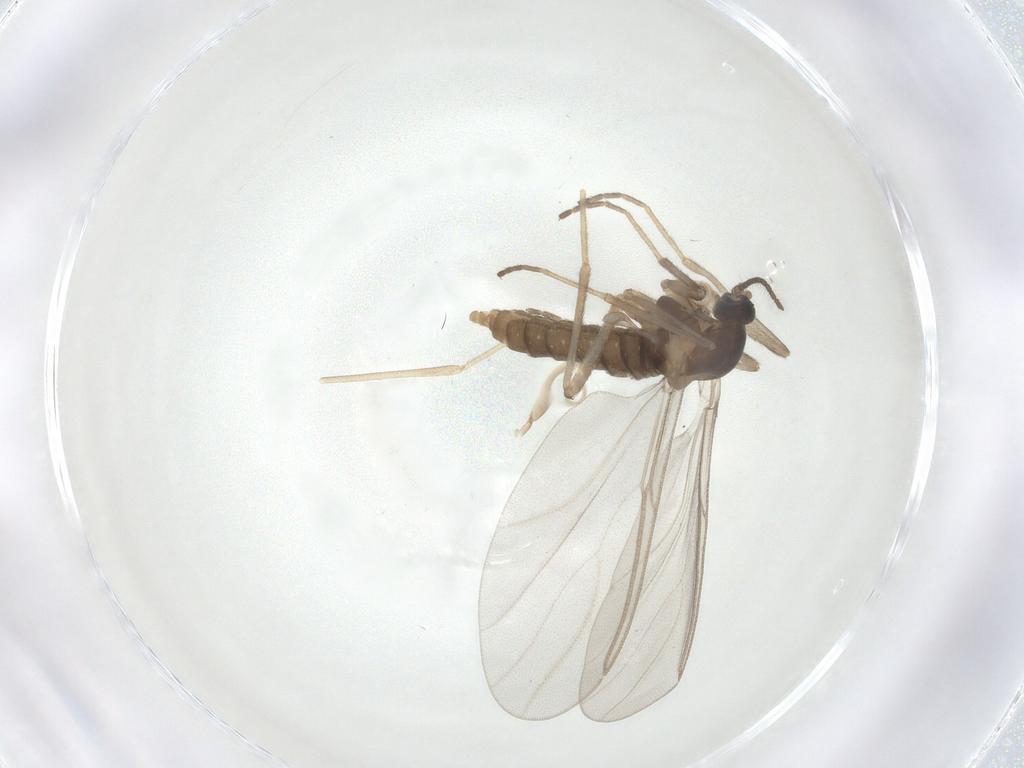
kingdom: Animalia
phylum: Arthropoda
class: Insecta
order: Diptera
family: Cecidomyiidae
